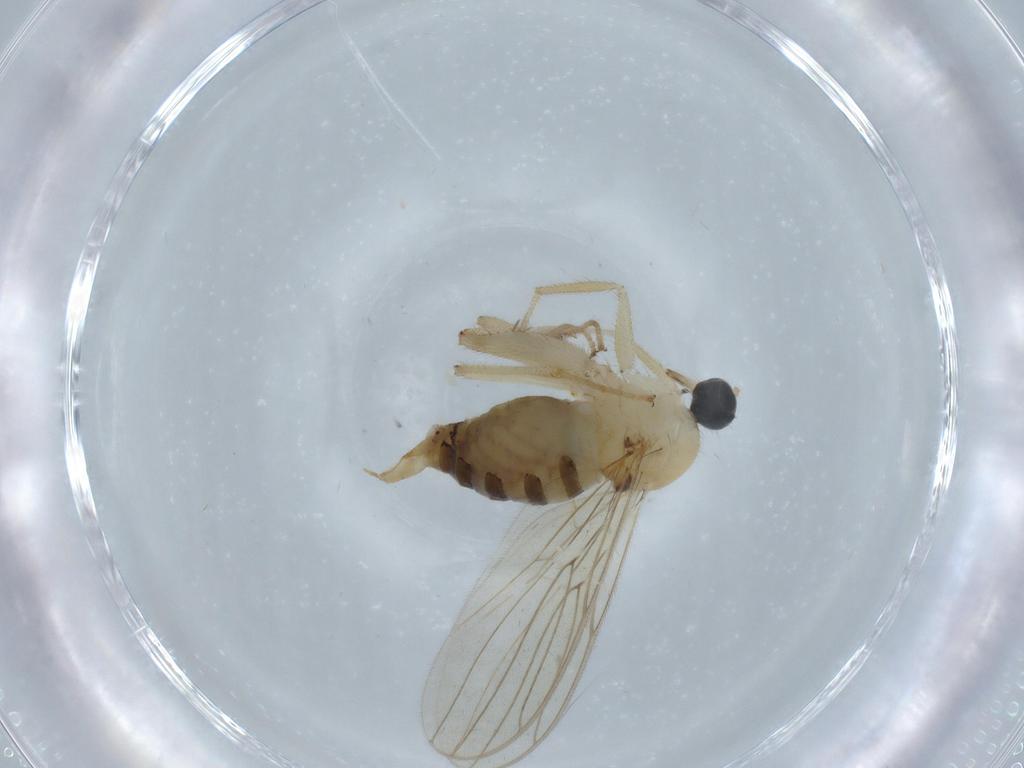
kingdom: Animalia
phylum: Arthropoda
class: Insecta
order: Diptera
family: Hybotidae
